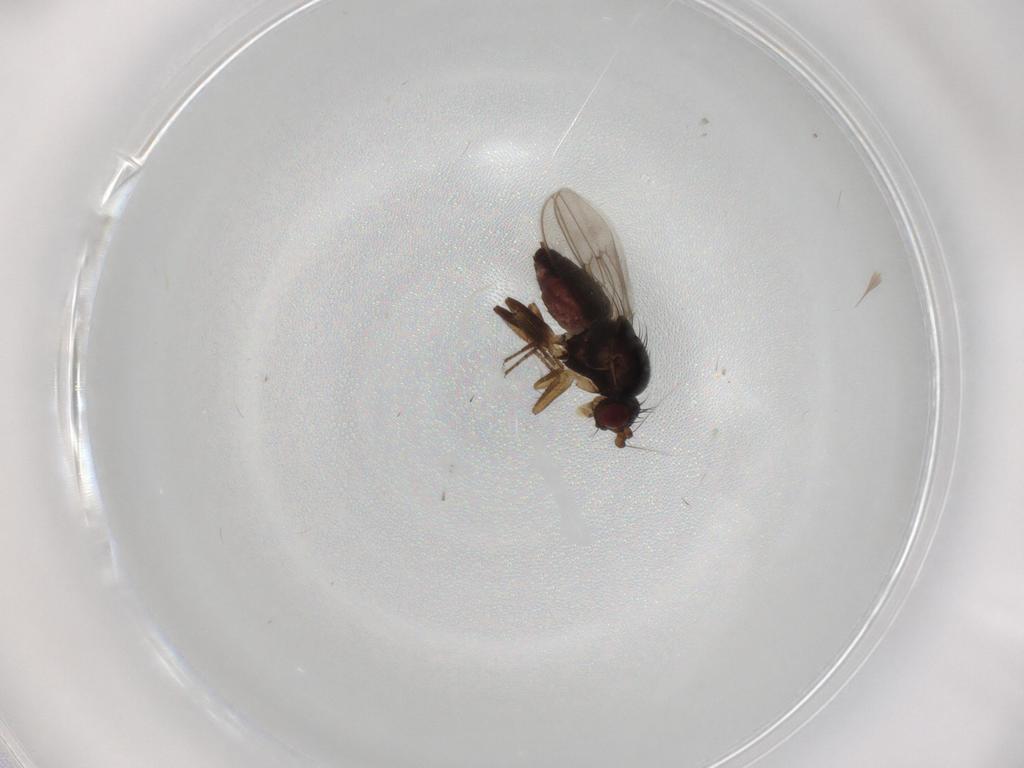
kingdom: Animalia
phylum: Arthropoda
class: Insecta
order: Diptera
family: Sphaeroceridae
